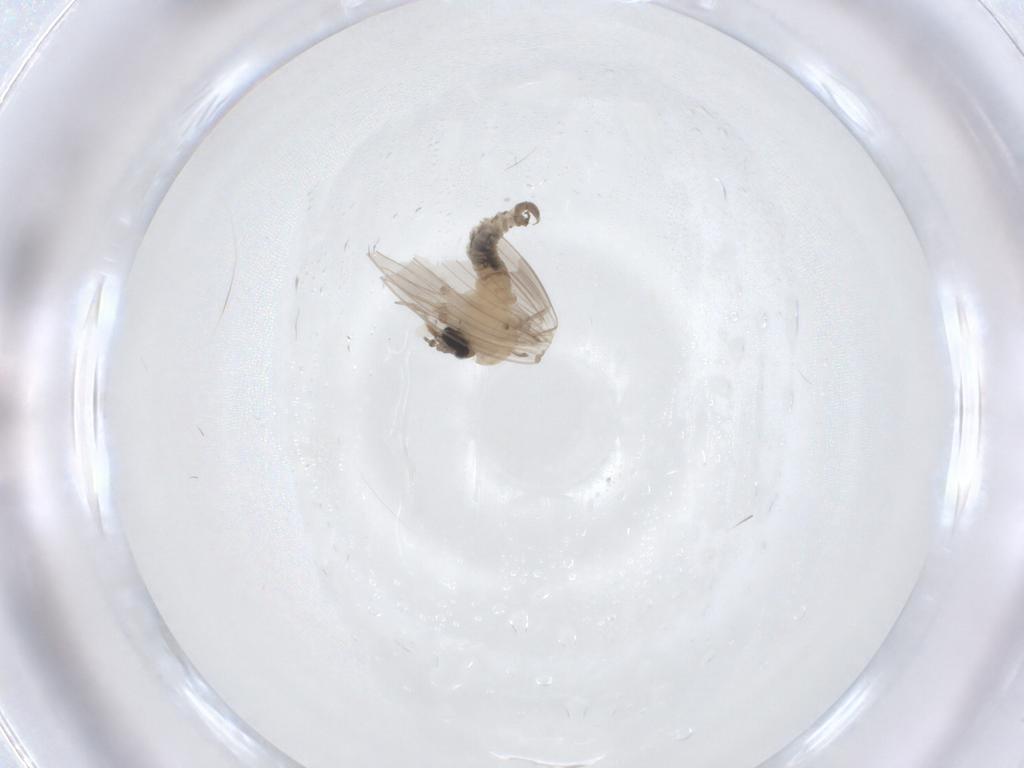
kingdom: Animalia
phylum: Arthropoda
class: Insecta
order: Diptera
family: Psychodidae
